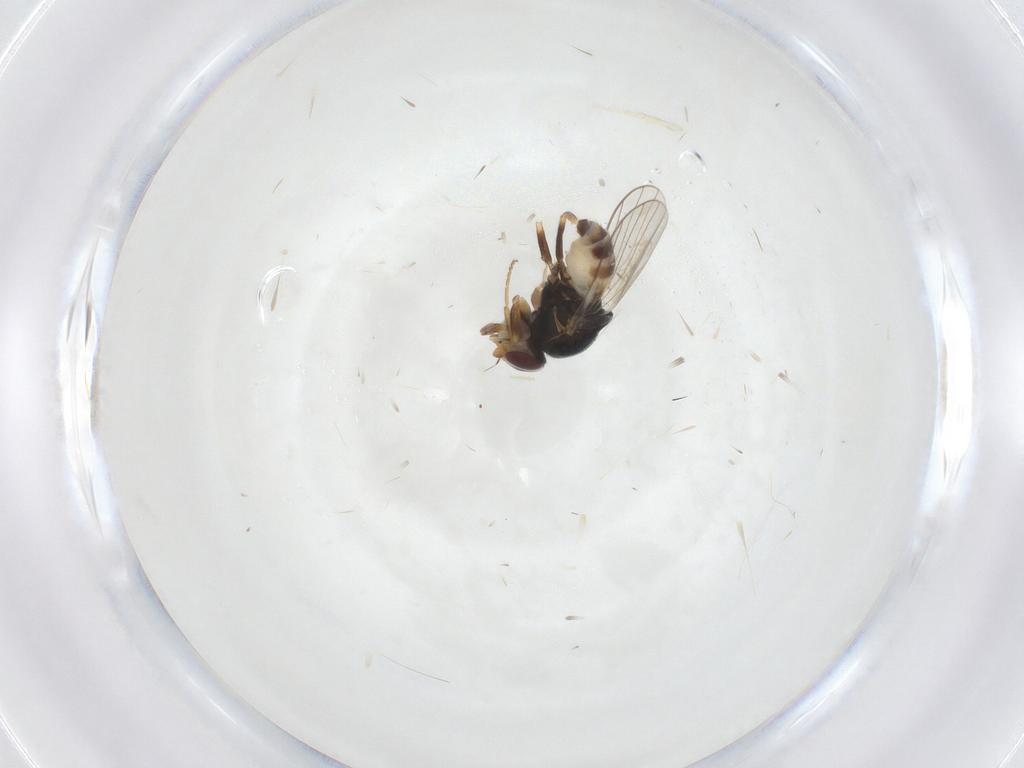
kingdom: Animalia
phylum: Arthropoda
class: Insecta
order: Diptera
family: Chloropidae
